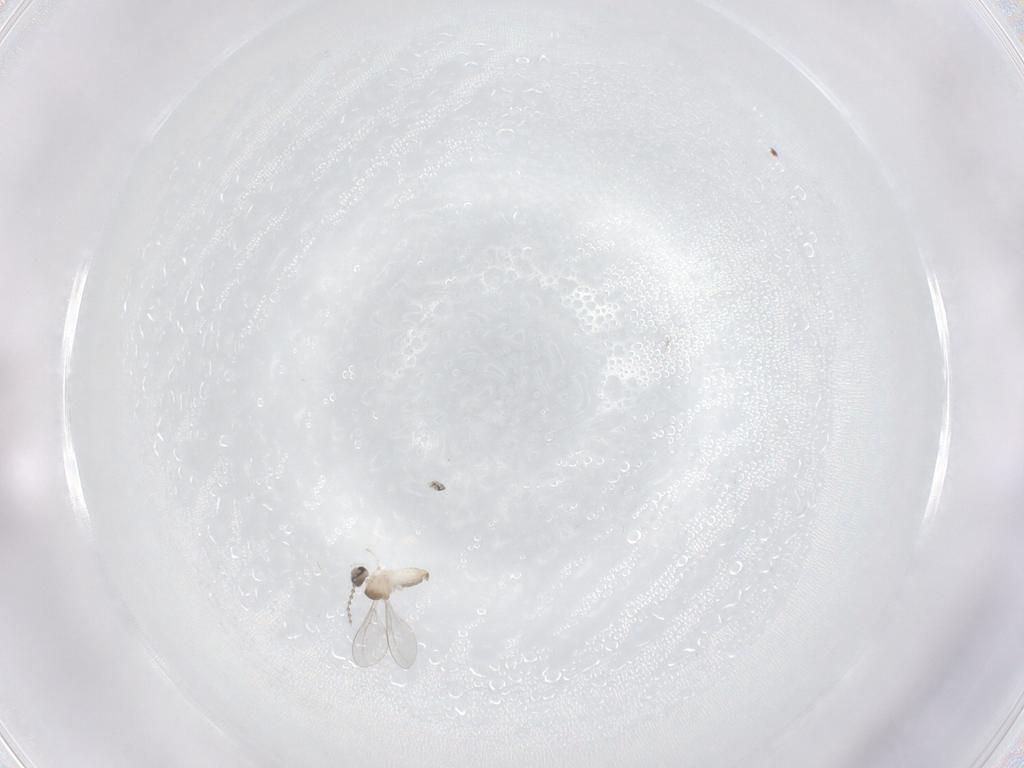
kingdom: Animalia
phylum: Arthropoda
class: Insecta
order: Diptera
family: Cecidomyiidae
